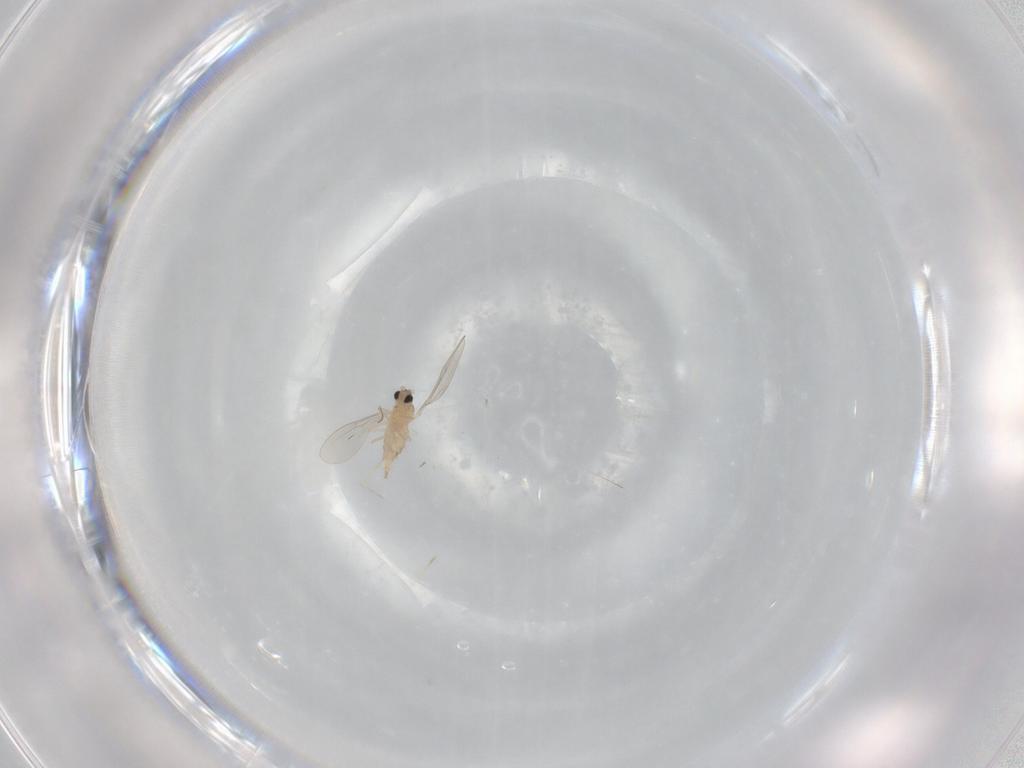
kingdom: Animalia
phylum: Arthropoda
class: Insecta
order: Diptera
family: Cecidomyiidae
